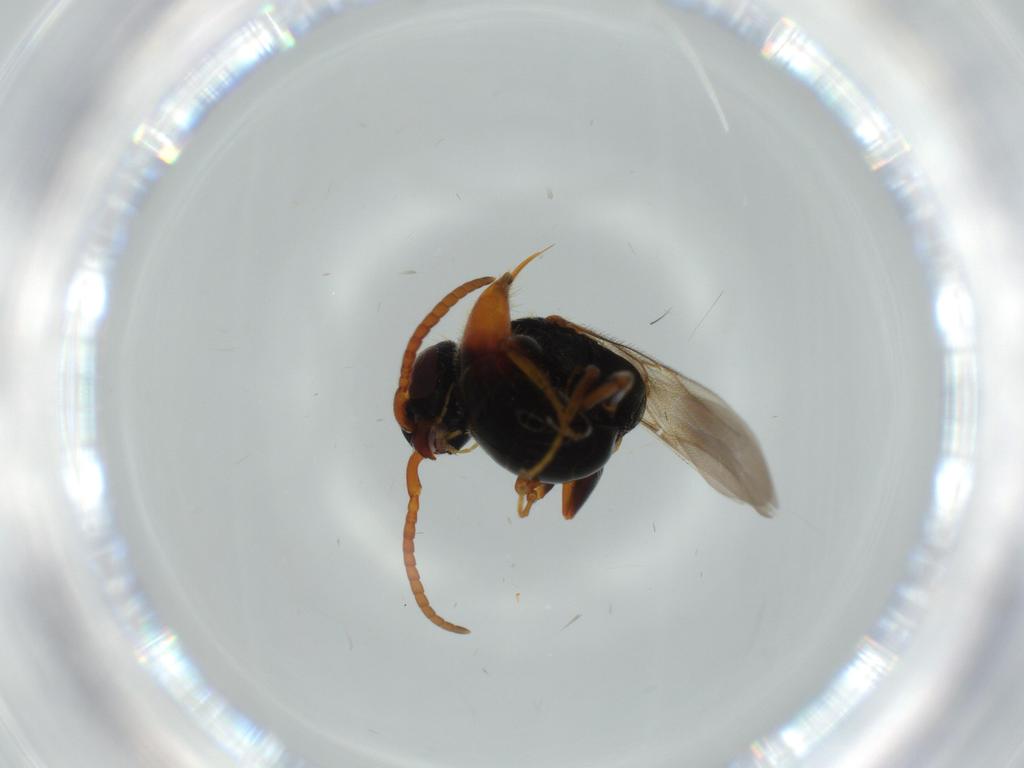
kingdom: Animalia
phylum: Arthropoda
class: Insecta
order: Hymenoptera
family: Bethylidae
